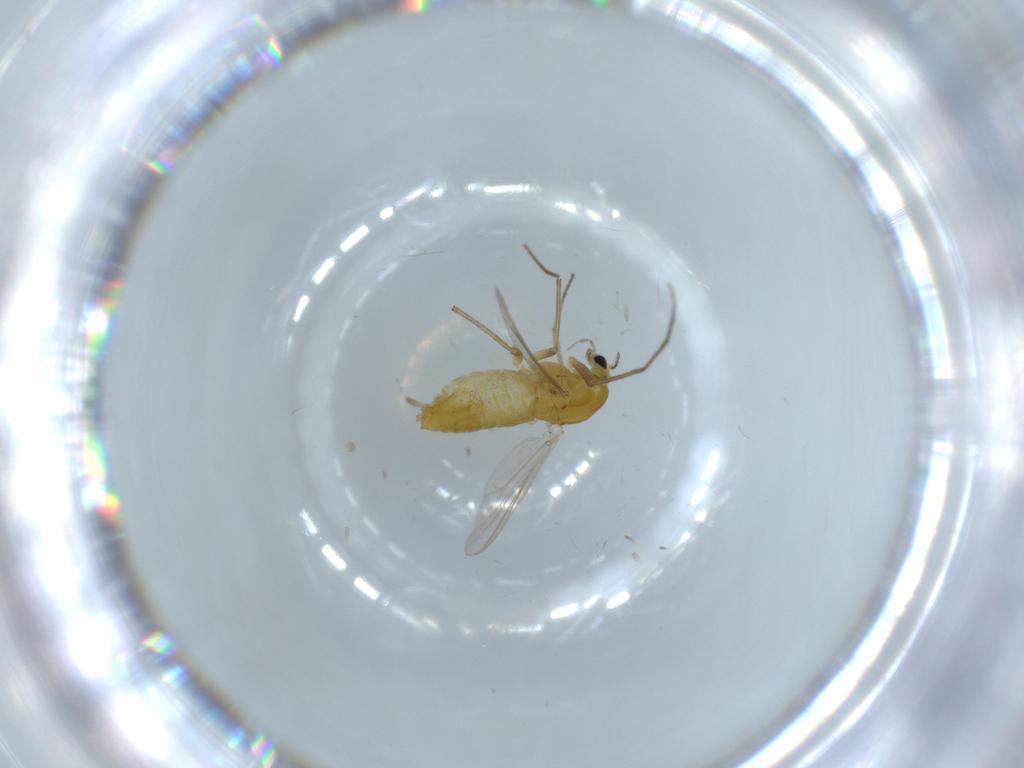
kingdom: Animalia
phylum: Arthropoda
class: Insecta
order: Diptera
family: Chironomidae
